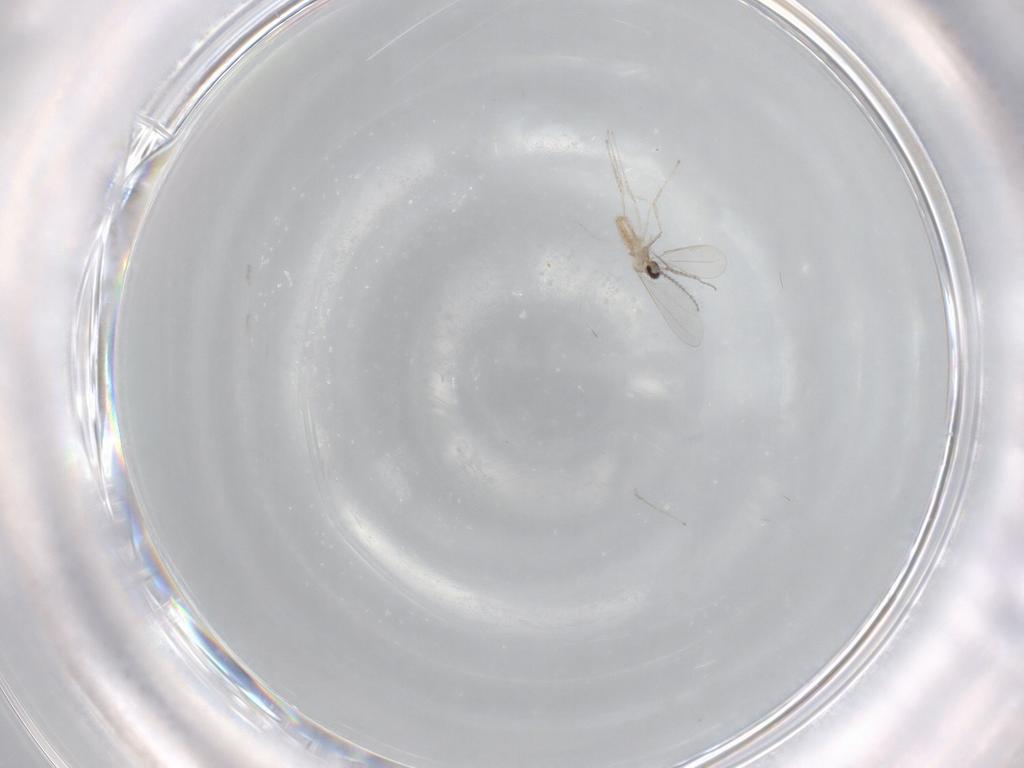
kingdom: Animalia
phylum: Arthropoda
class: Insecta
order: Diptera
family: Cecidomyiidae
